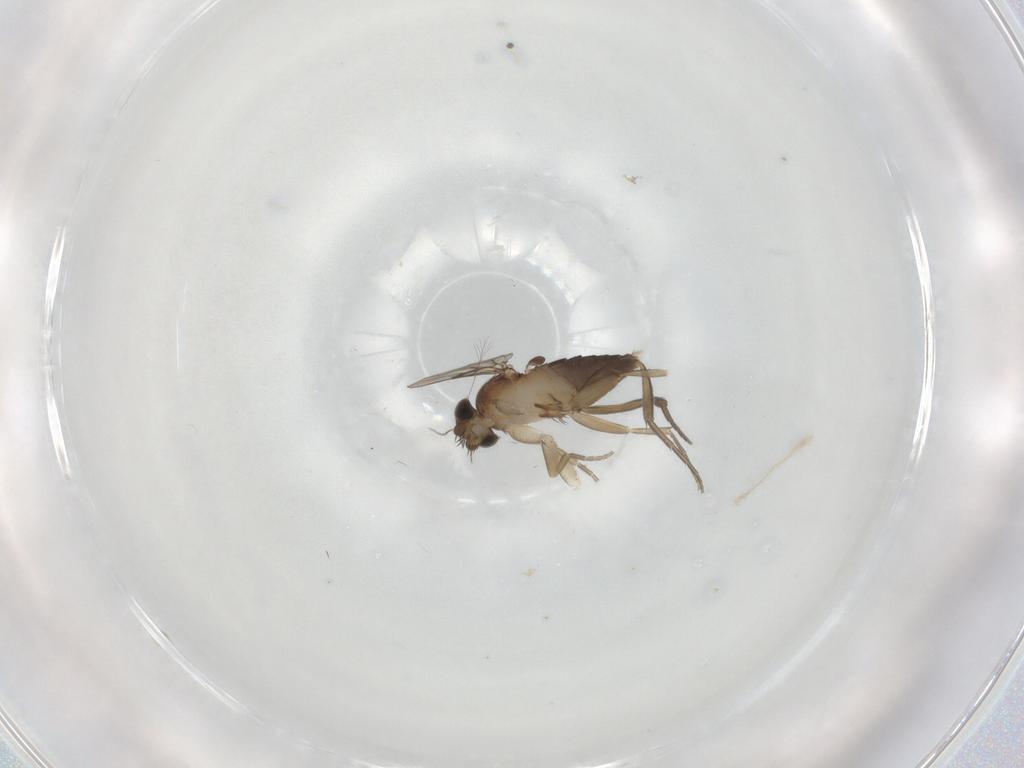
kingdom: Animalia
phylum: Arthropoda
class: Insecta
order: Diptera
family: Phoridae
